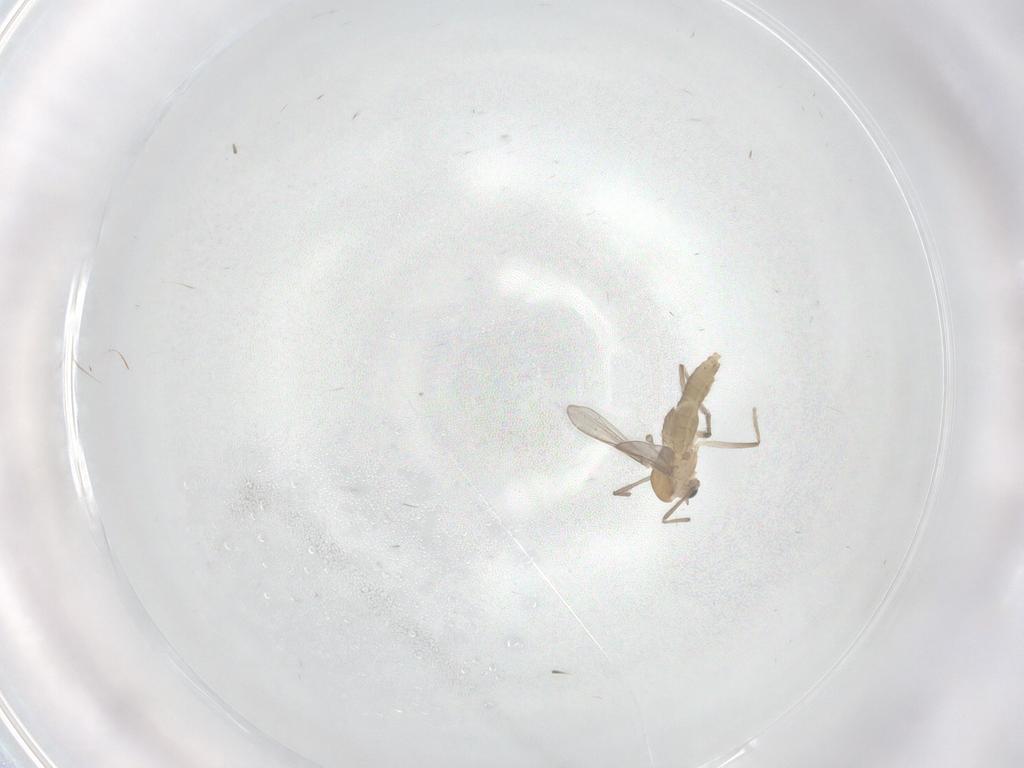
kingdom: Animalia
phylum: Arthropoda
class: Insecta
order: Diptera
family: Chironomidae
